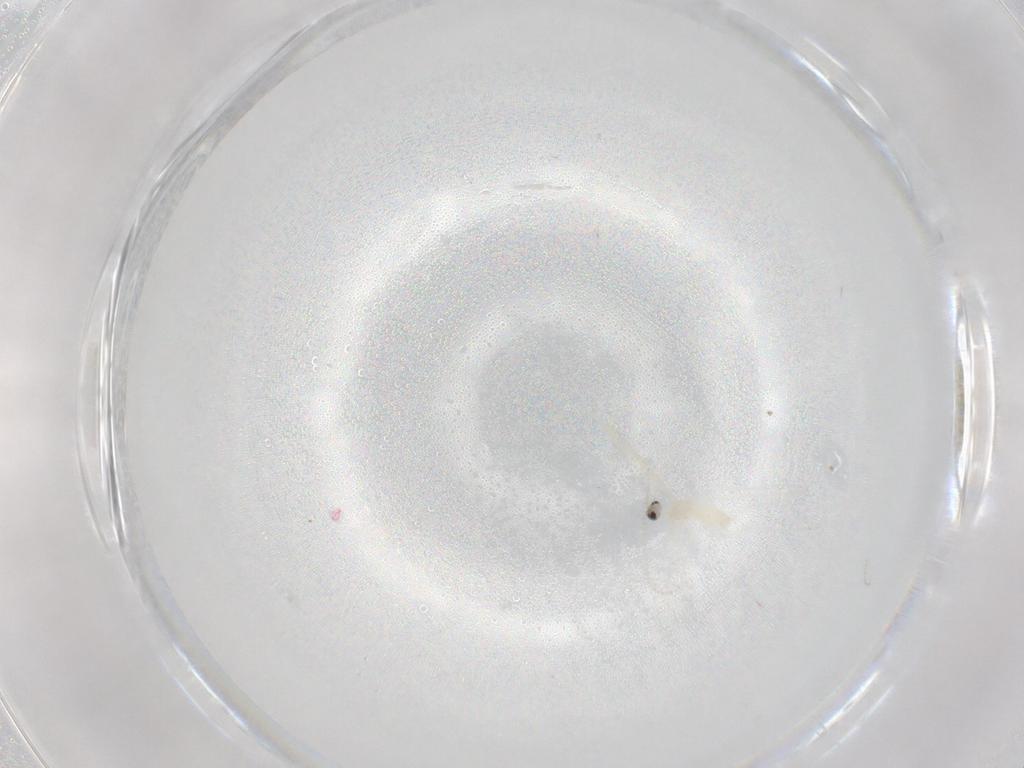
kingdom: Animalia
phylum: Arthropoda
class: Insecta
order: Diptera
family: Cecidomyiidae
